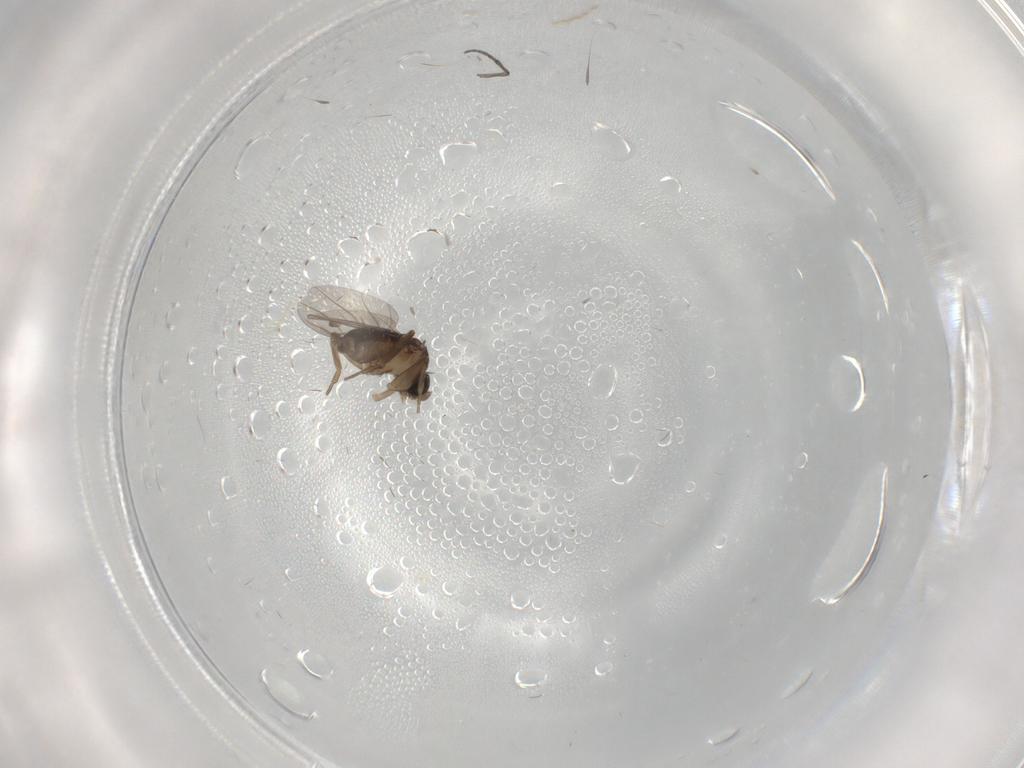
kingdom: Animalia
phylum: Arthropoda
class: Insecta
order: Diptera
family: Phoridae
